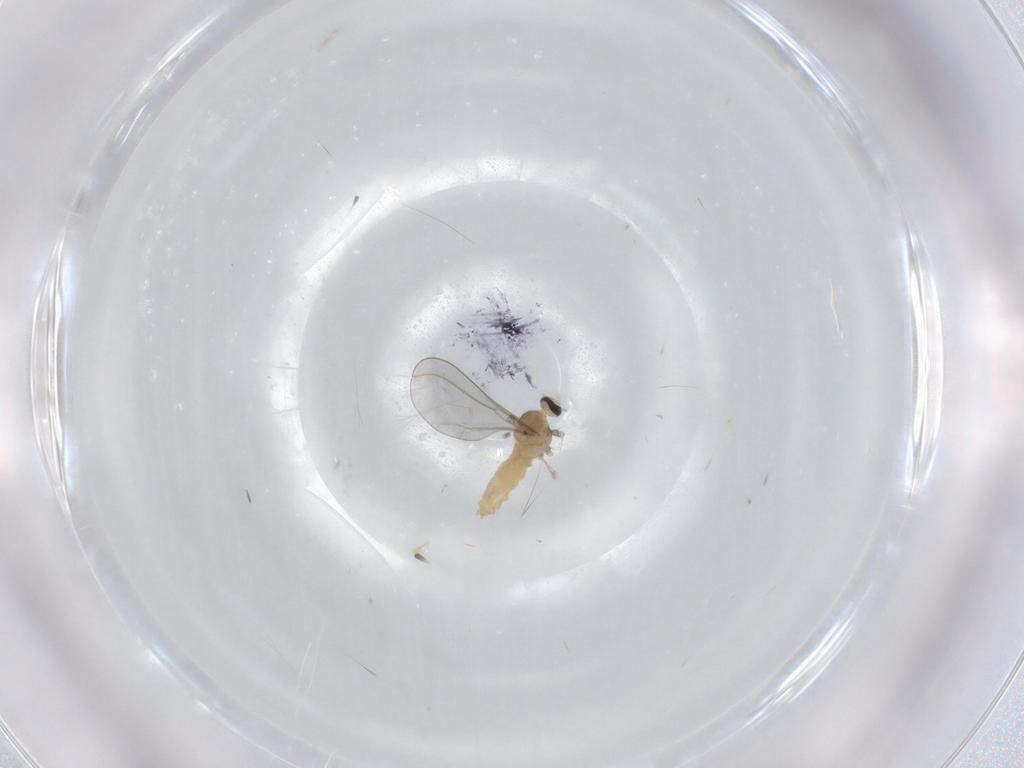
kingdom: Animalia
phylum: Arthropoda
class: Insecta
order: Diptera
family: Cecidomyiidae
